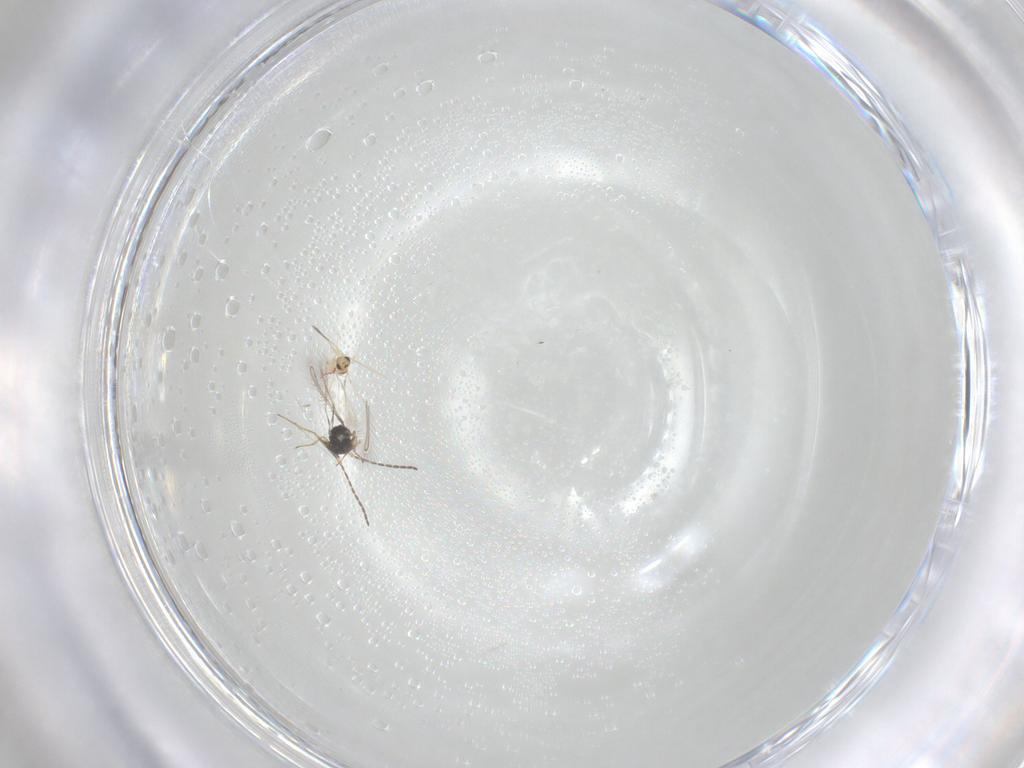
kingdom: Animalia
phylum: Arthropoda
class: Insecta
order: Hymenoptera
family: Mymaridae
